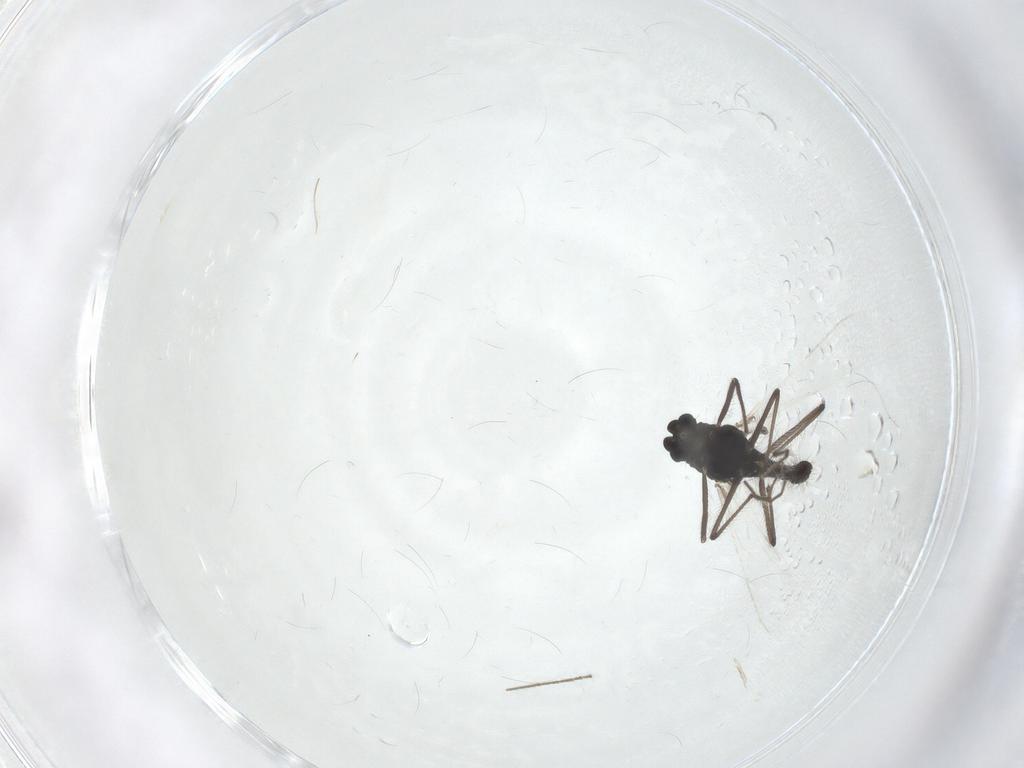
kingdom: Animalia
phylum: Arthropoda
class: Insecta
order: Diptera
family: Chironomidae
